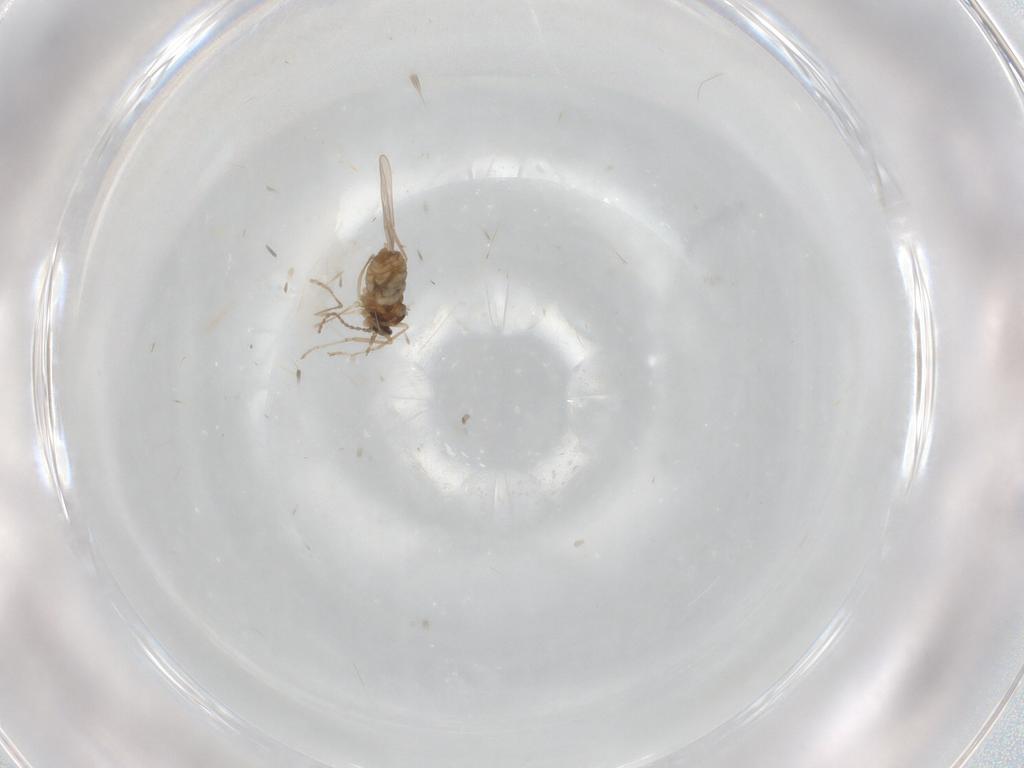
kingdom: Animalia
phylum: Arthropoda
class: Insecta
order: Diptera
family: Cecidomyiidae
